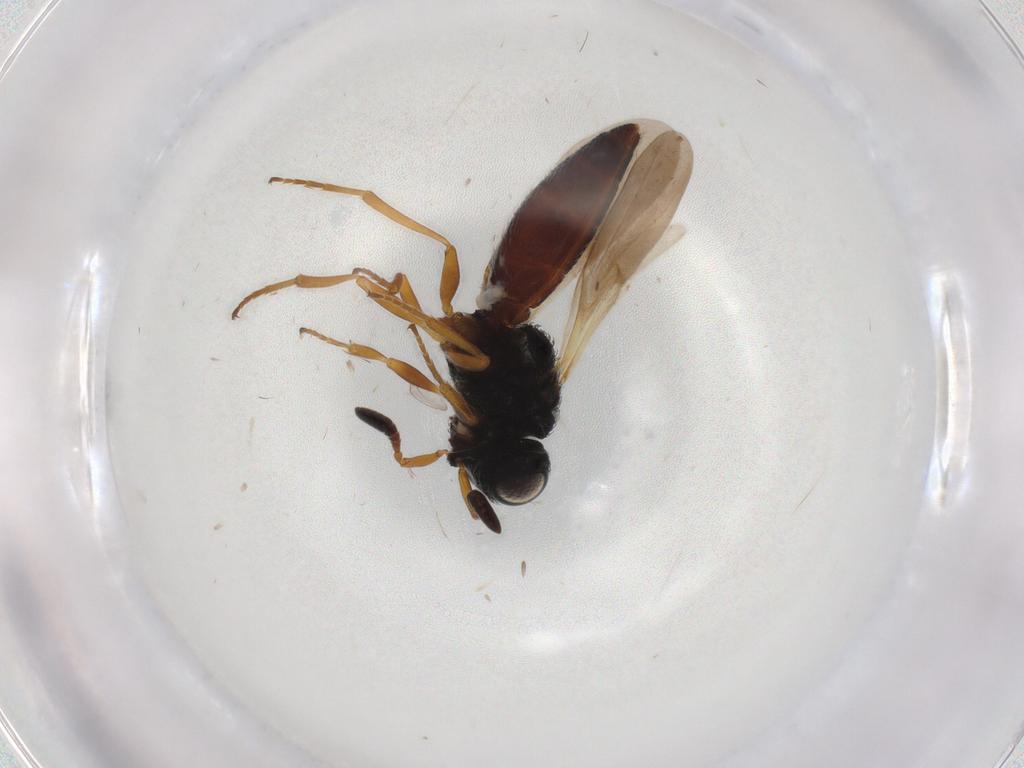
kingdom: Animalia
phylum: Arthropoda
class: Insecta
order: Hymenoptera
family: Scelionidae
